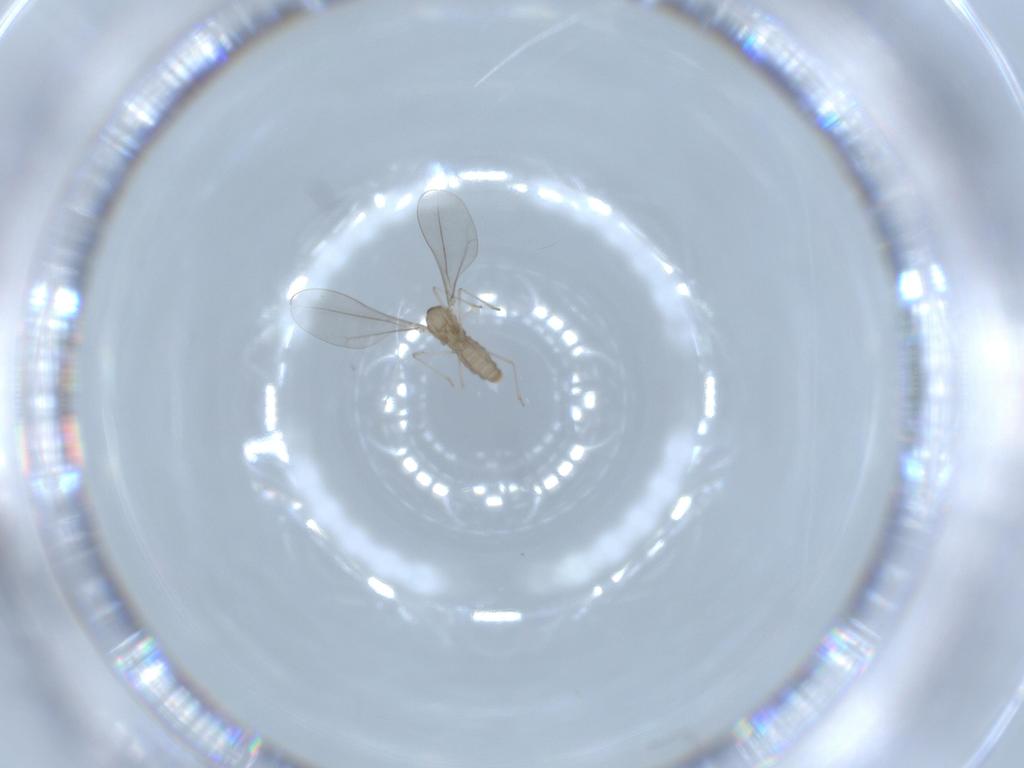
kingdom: Animalia
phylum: Arthropoda
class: Insecta
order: Diptera
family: Cecidomyiidae
